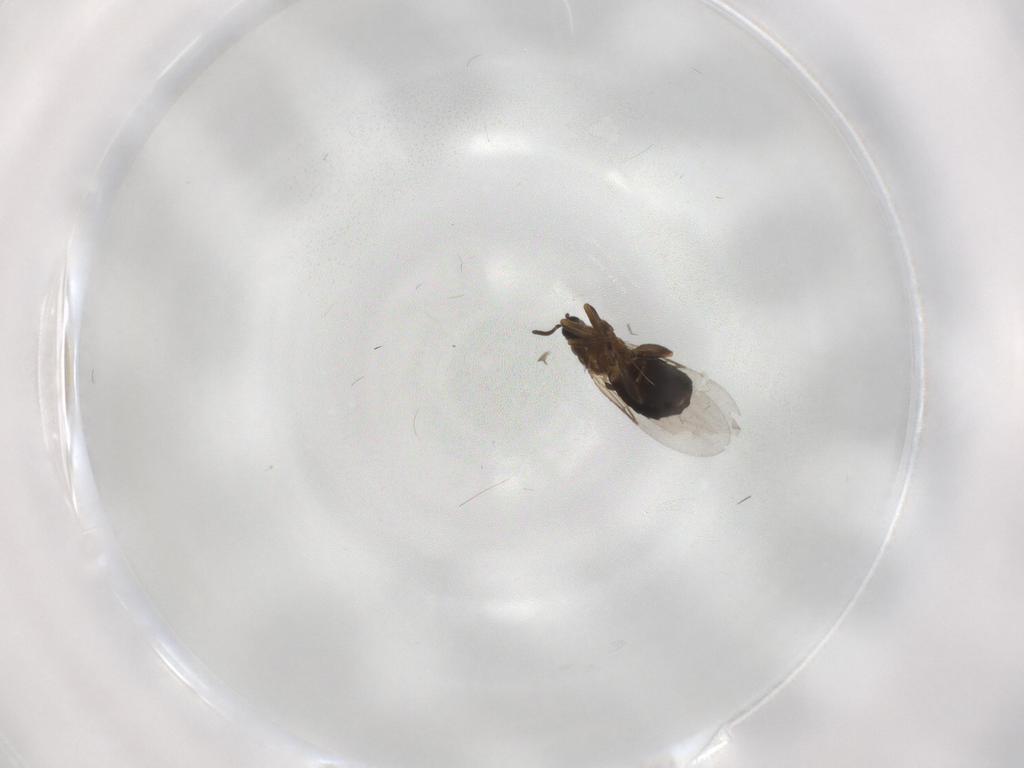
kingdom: Animalia
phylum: Arthropoda
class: Insecta
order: Diptera
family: Scatopsidae
